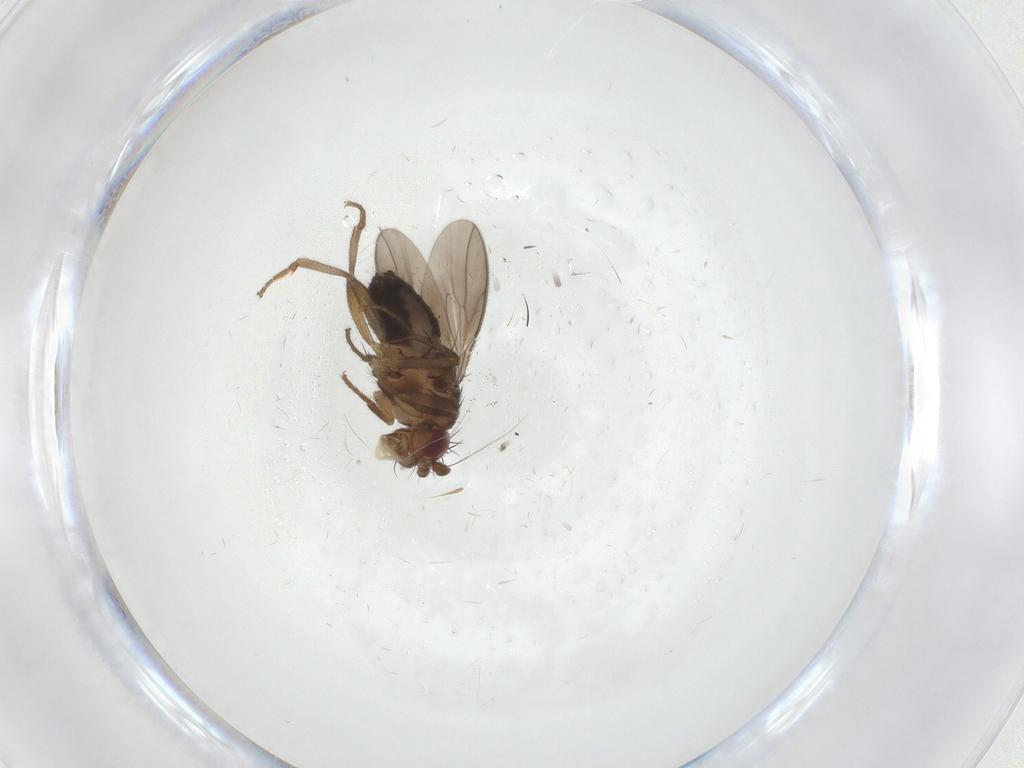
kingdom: Animalia
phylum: Arthropoda
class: Insecta
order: Diptera
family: Sphaeroceridae
